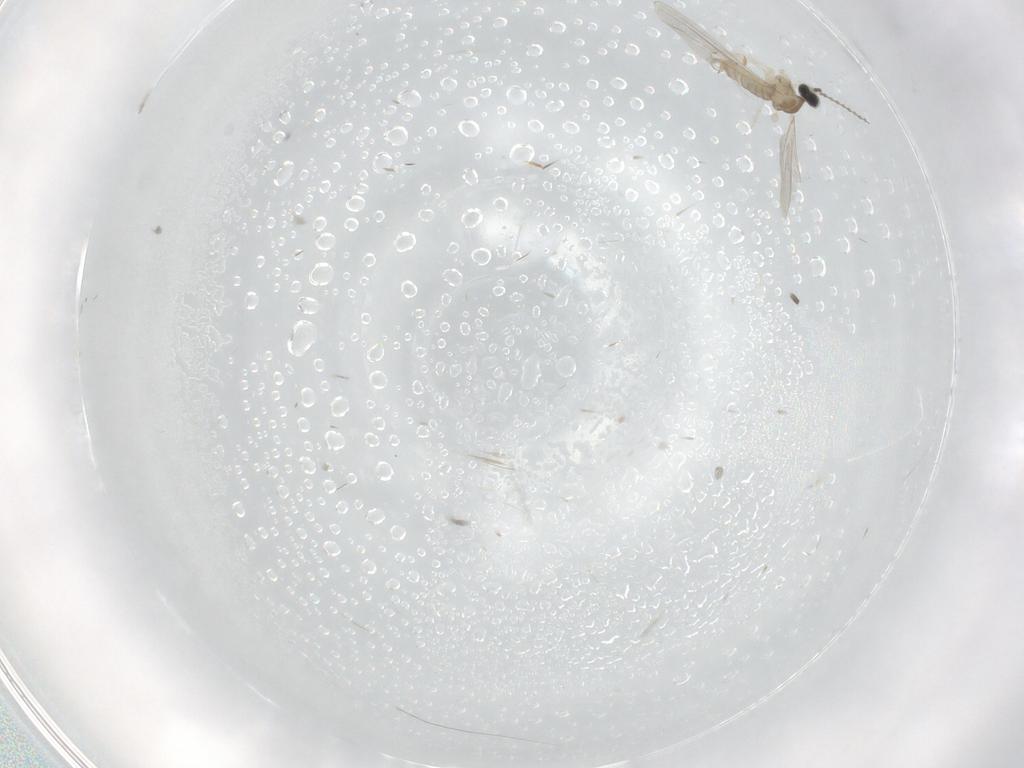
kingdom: Animalia
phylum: Arthropoda
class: Insecta
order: Diptera
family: Cecidomyiidae
